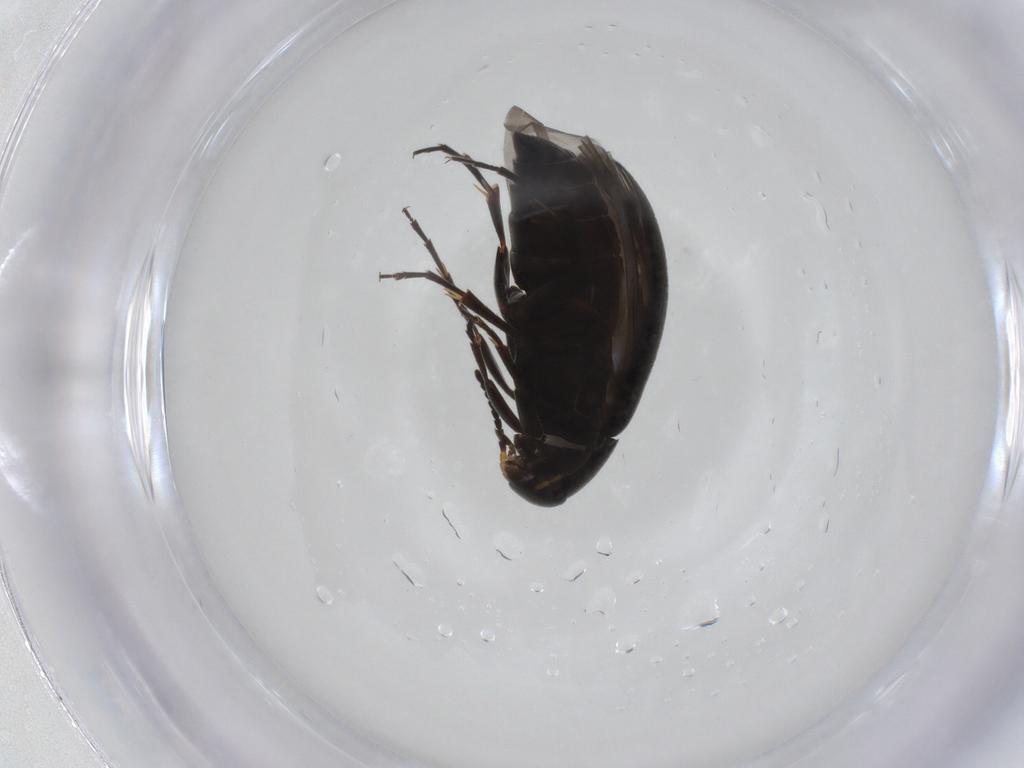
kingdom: Animalia
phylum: Arthropoda
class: Insecta
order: Coleoptera
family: Scraptiidae
